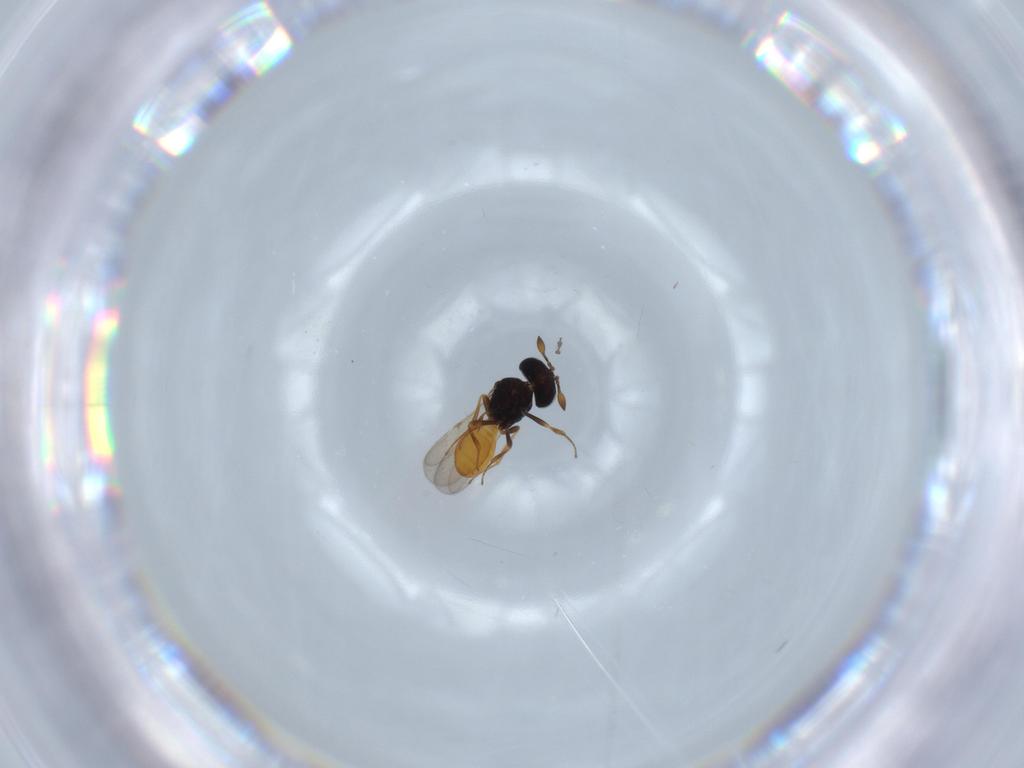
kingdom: Animalia
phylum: Arthropoda
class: Insecta
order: Hymenoptera
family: Scelionidae
